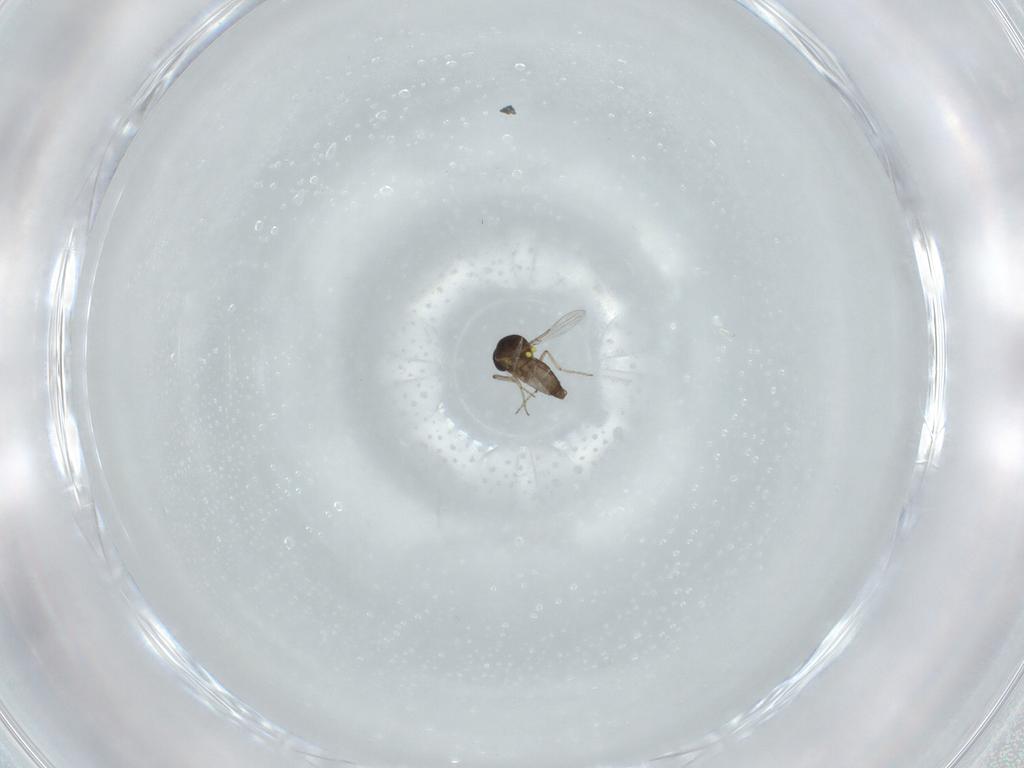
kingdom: Animalia
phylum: Arthropoda
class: Insecta
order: Diptera
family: Ceratopogonidae
